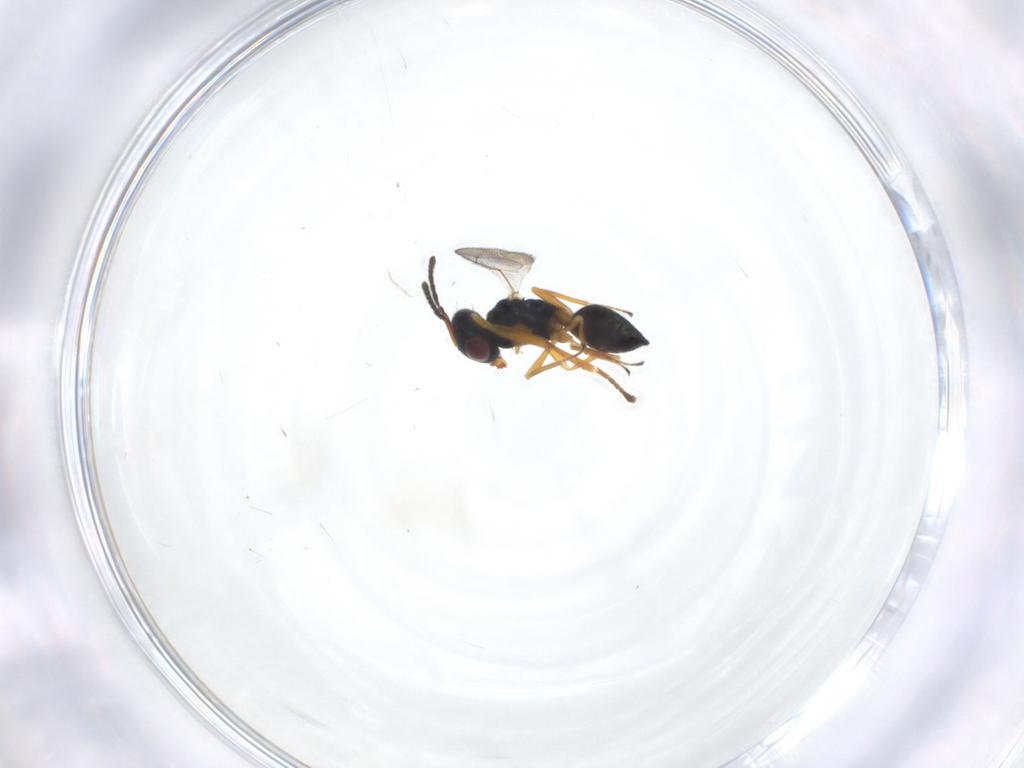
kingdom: Animalia
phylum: Arthropoda
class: Insecta
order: Hymenoptera
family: Pteromalidae
